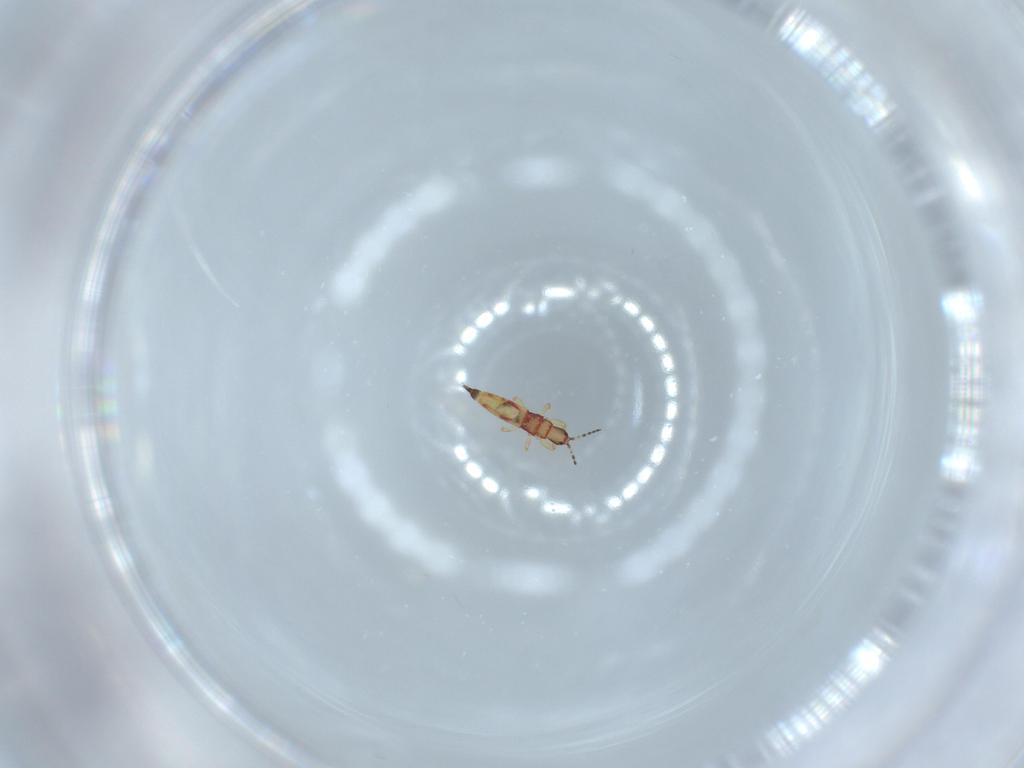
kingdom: Animalia
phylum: Arthropoda
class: Insecta
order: Thysanoptera
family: Phlaeothripidae
